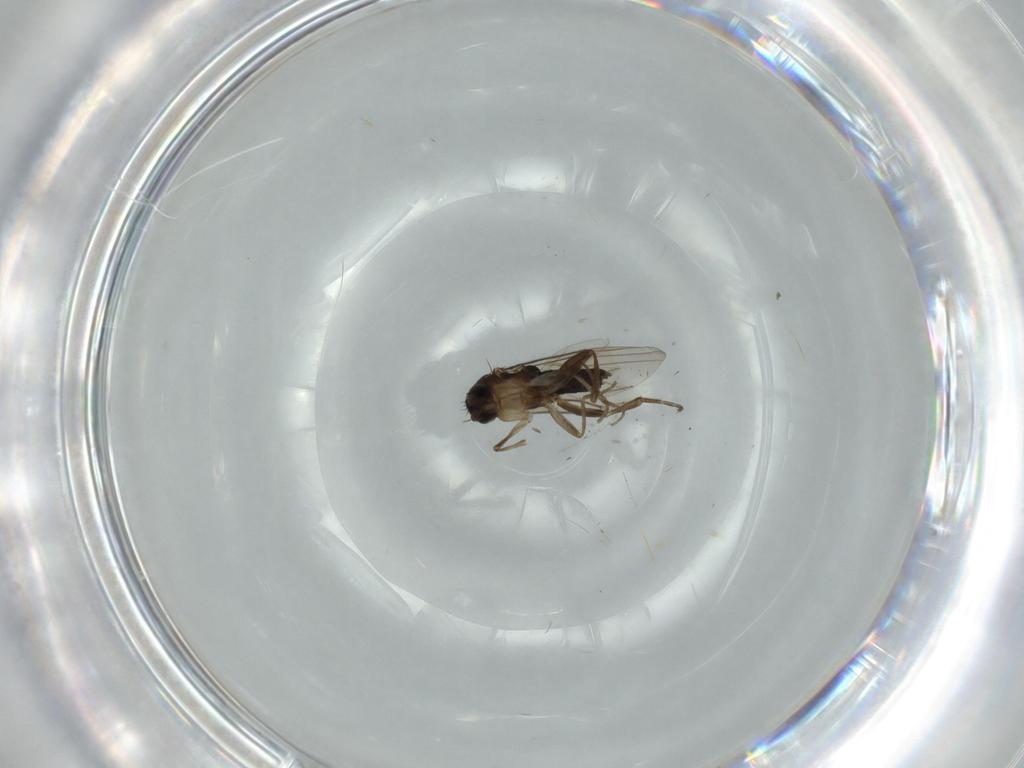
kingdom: Animalia
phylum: Arthropoda
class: Insecta
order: Diptera
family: Phoridae
